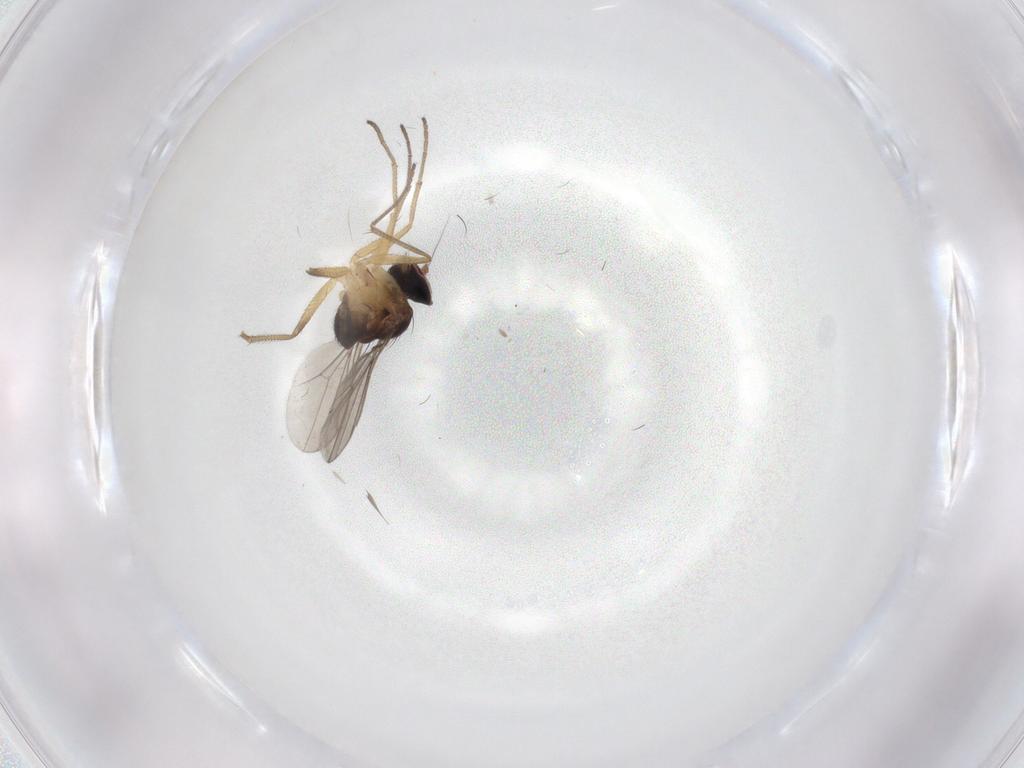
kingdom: Animalia
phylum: Arthropoda
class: Insecta
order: Diptera
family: Dolichopodidae
